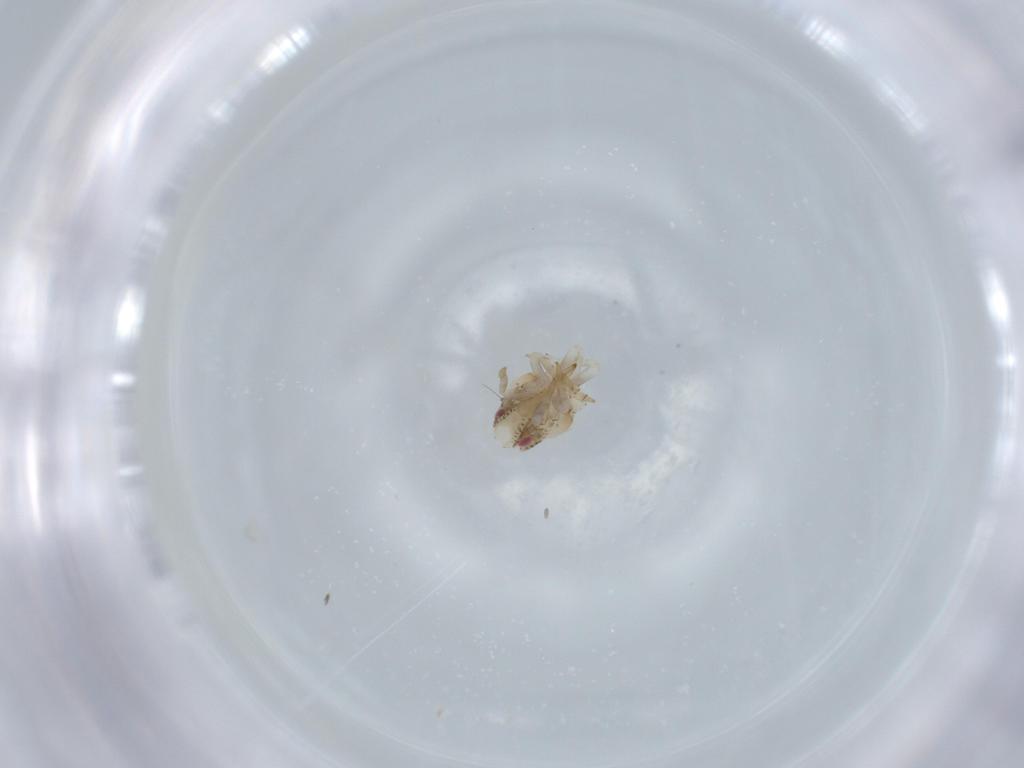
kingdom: Animalia
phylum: Arthropoda
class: Insecta
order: Hemiptera
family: Acanaloniidae
